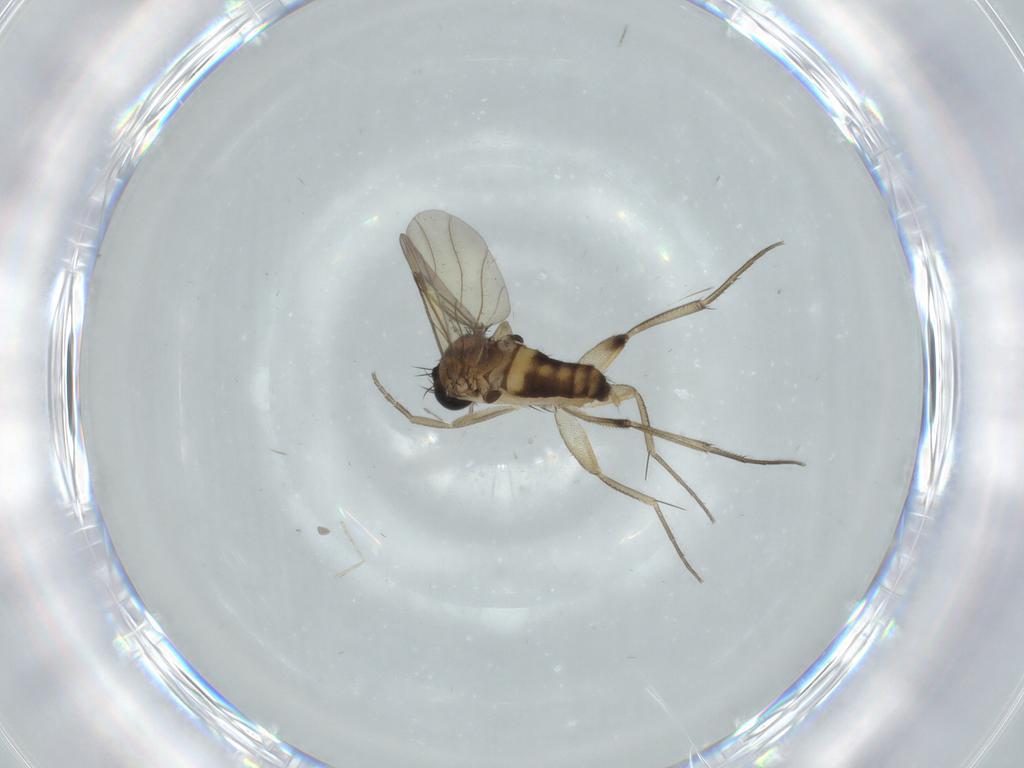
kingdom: Animalia
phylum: Arthropoda
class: Insecta
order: Diptera
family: Phoridae
